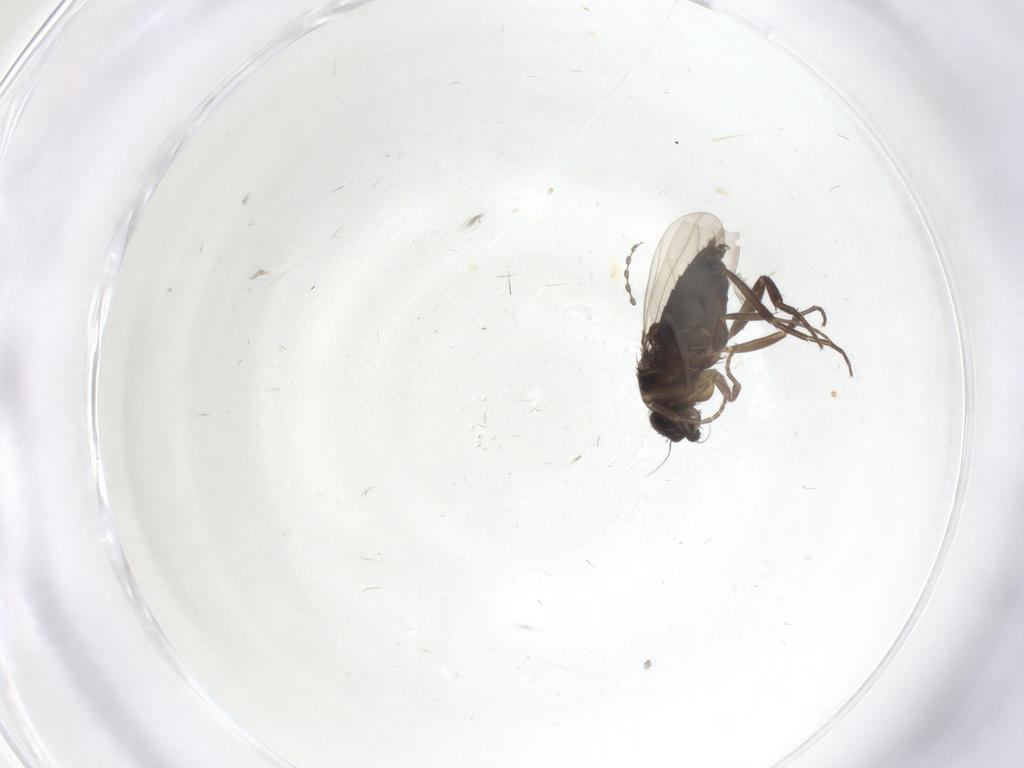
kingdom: Animalia
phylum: Arthropoda
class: Insecta
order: Diptera
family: Phoridae
